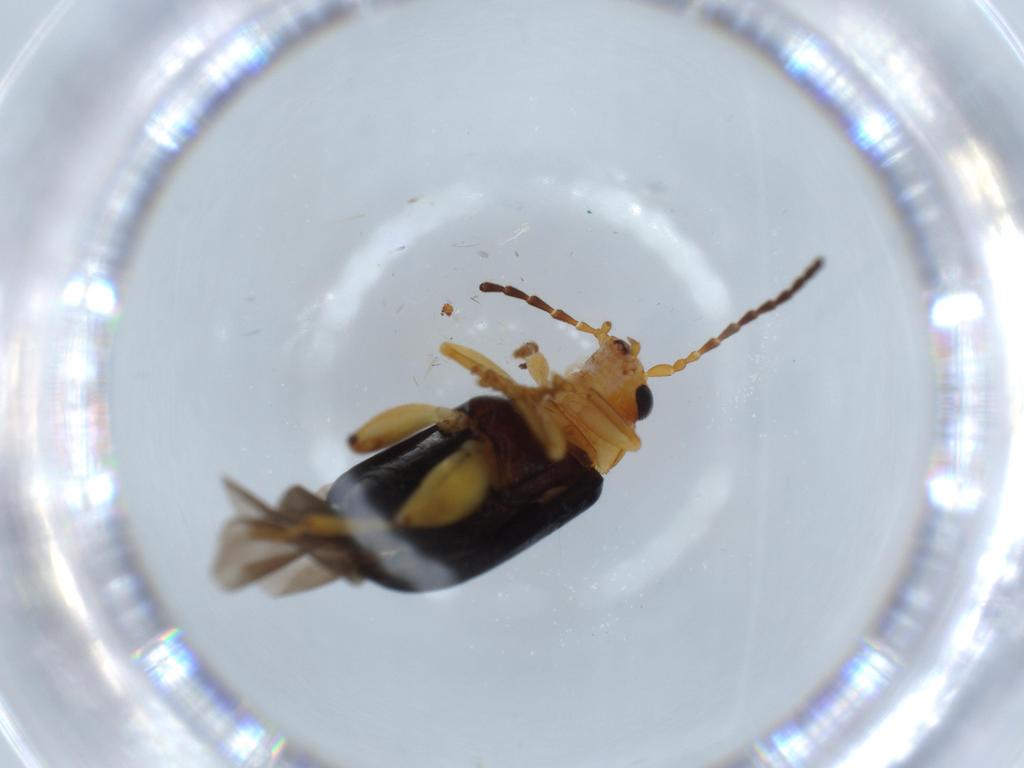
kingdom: Animalia
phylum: Arthropoda
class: Insecta
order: Coleoptera
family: Chrysomelidae
